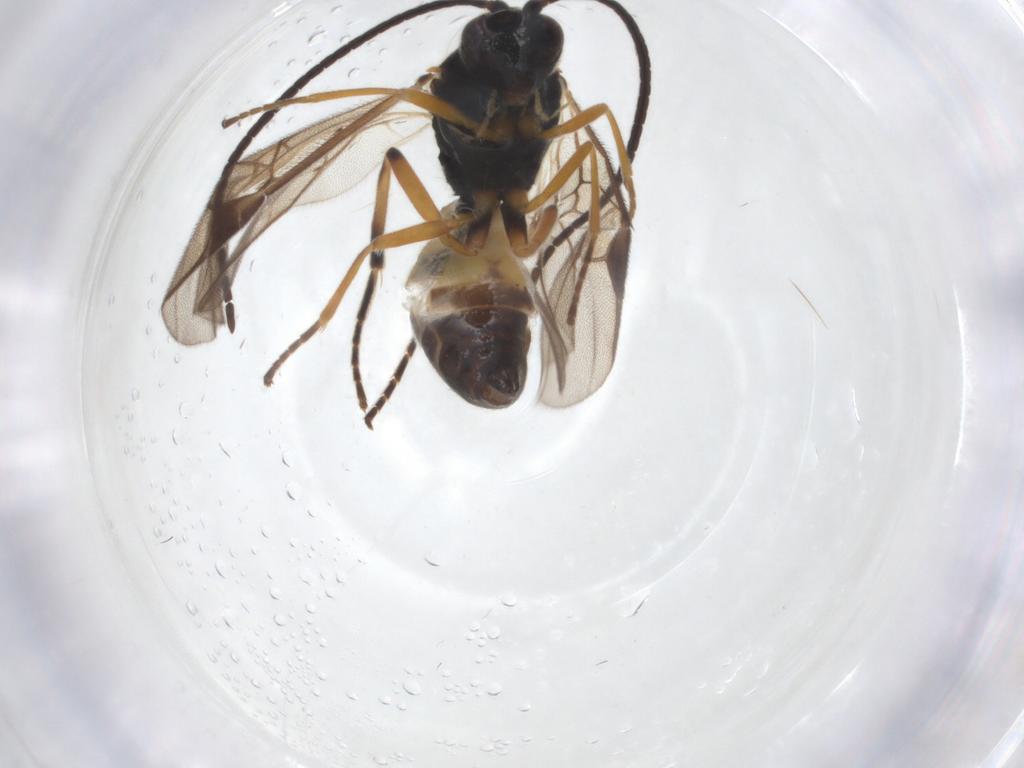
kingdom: Animalia
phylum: Arthropoda
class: Insecta
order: Hymenoptera
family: Braconidae
